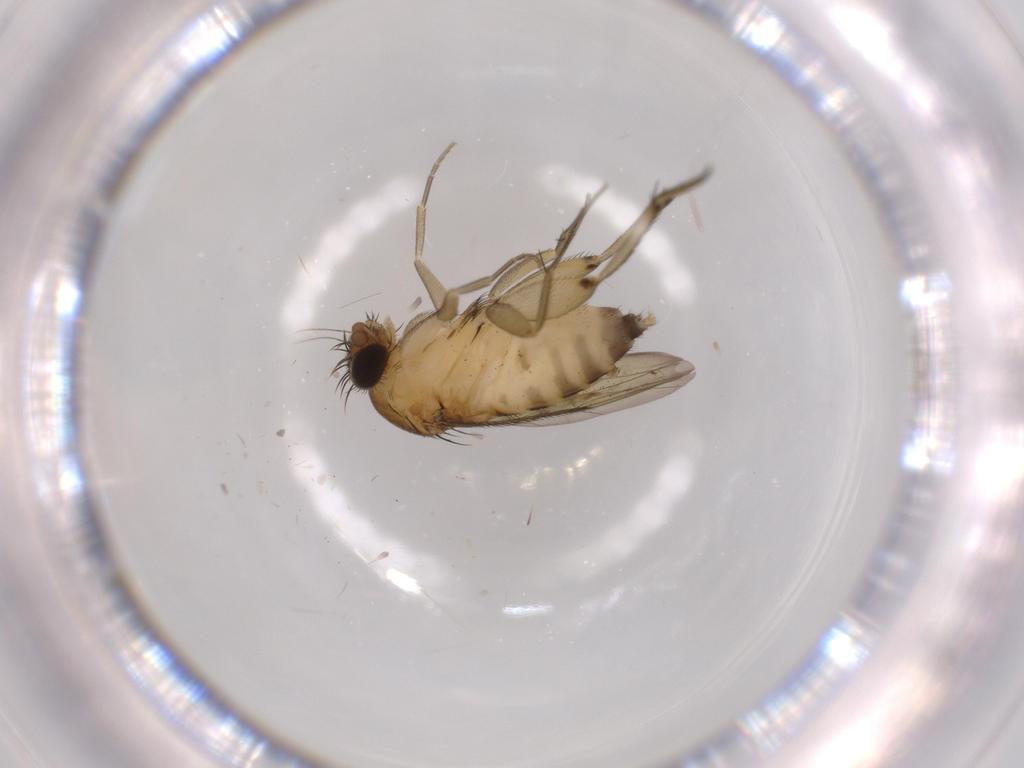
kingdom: Animalia
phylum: Arthropoda
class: Insecta
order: Diptera
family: Phoridae
